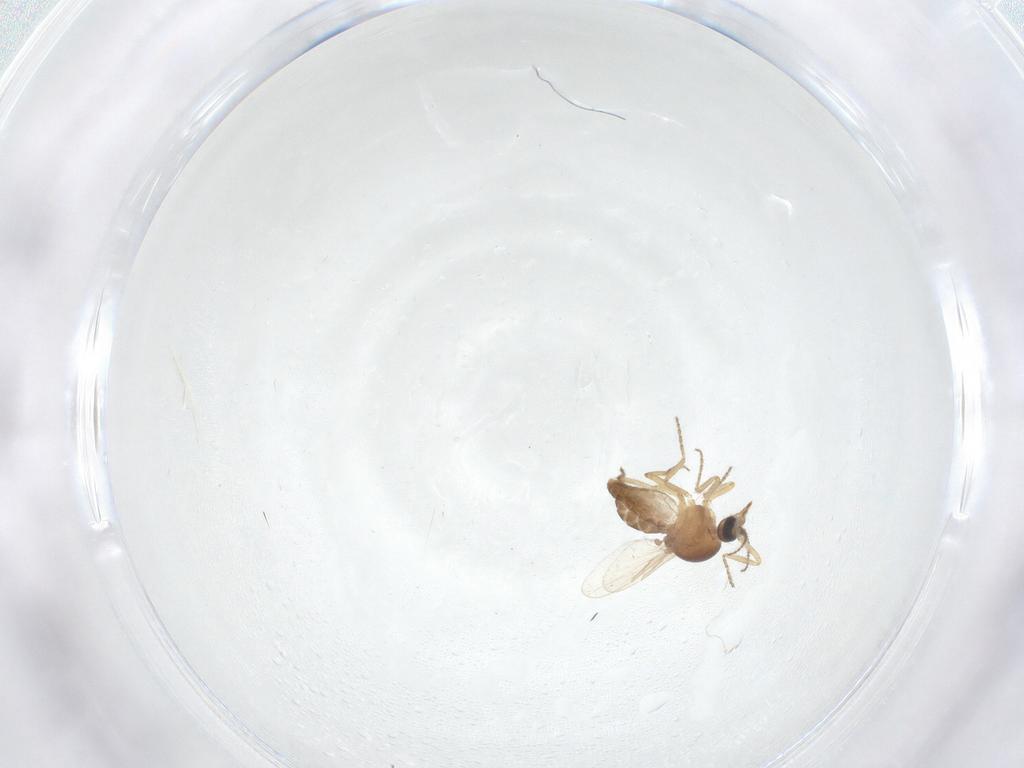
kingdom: Animalia
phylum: Arthropoda
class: Insecta
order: Diptera
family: Ceratopogonidae
